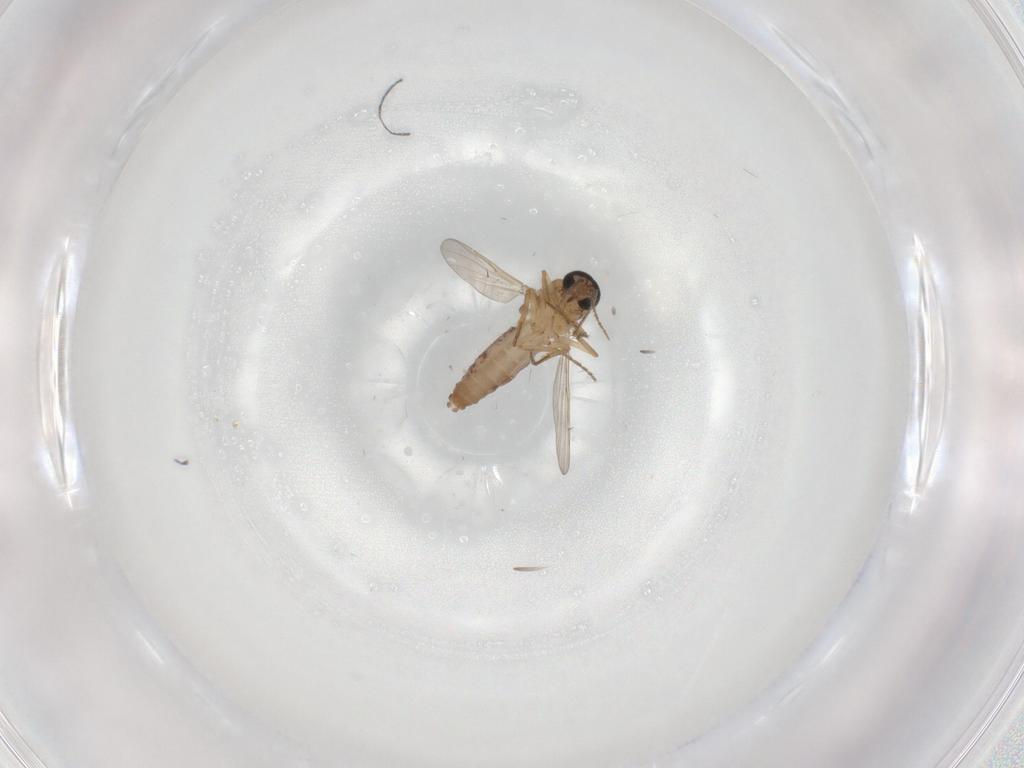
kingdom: Animalia
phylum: Arthropoda
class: Insecta
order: Diptera
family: Ceratopogonidae
